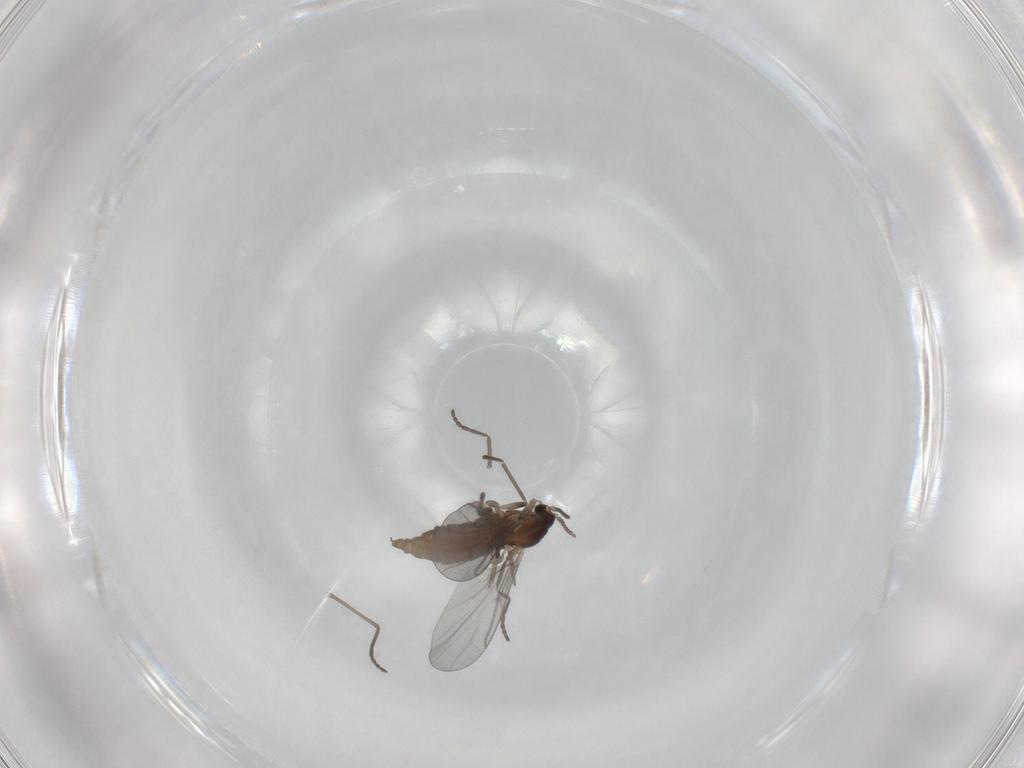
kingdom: Animalia
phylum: Arthropoda
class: Insecta
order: Diptera
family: Cecidomyiidae
